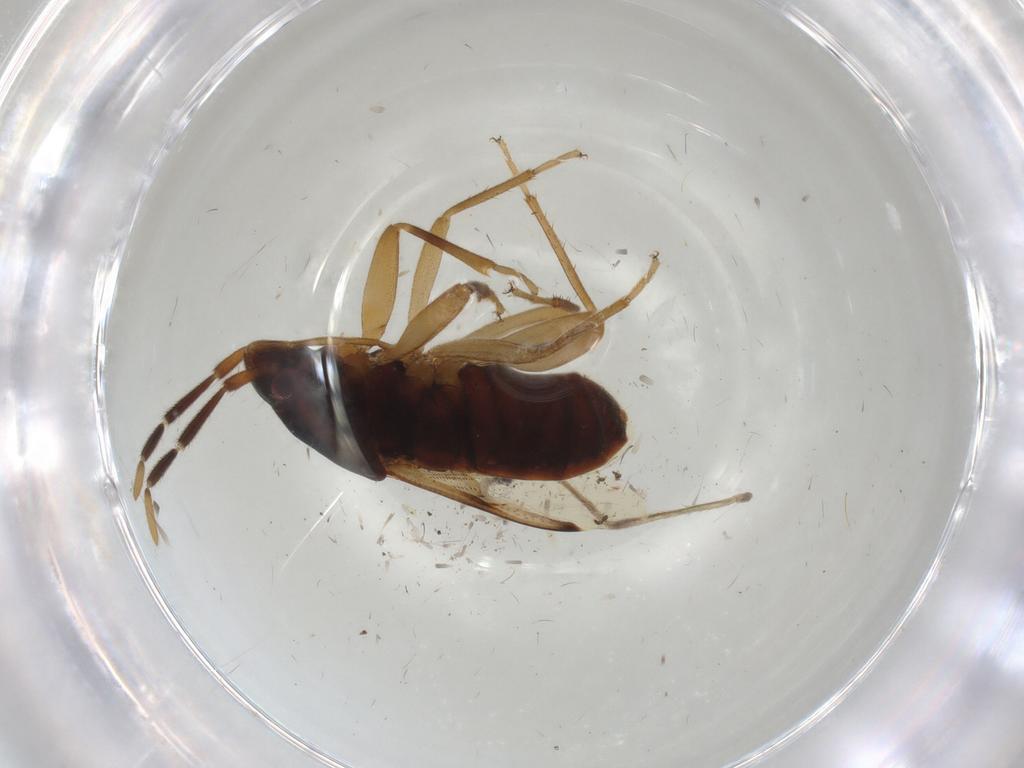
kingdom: Animalia
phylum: Arthropoda
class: Insecta
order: Hemiptera
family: Rhyparochromidae
